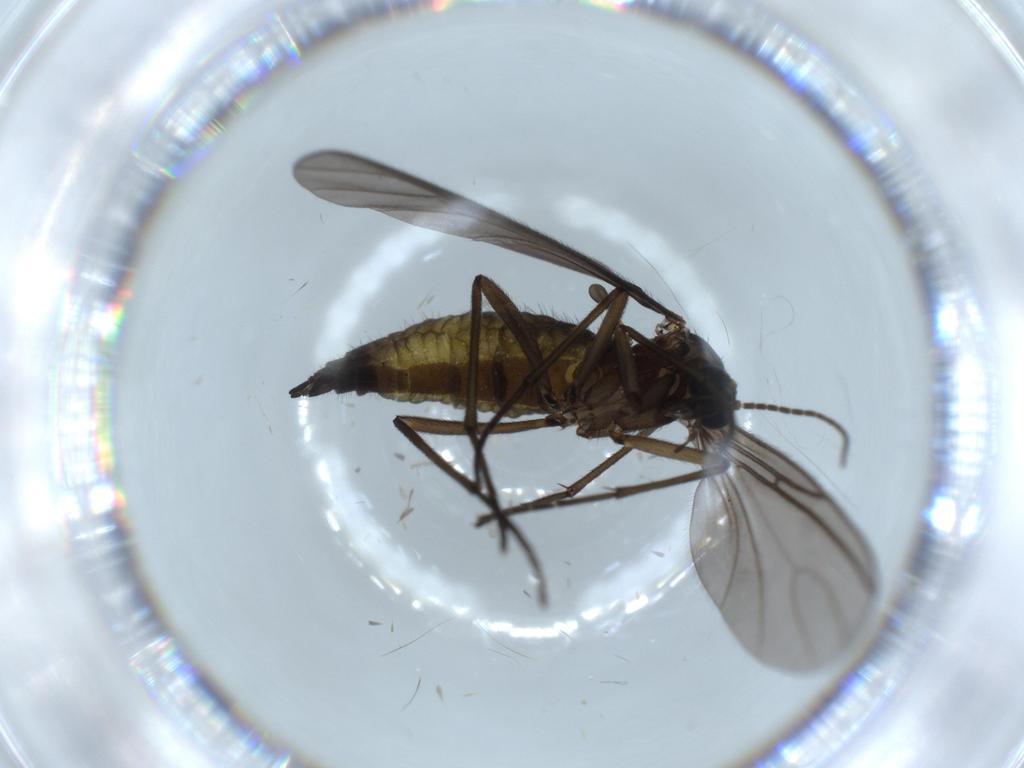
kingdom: Animalia
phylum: Arthropoda
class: Insecta
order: Diptera
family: Sciaridae
